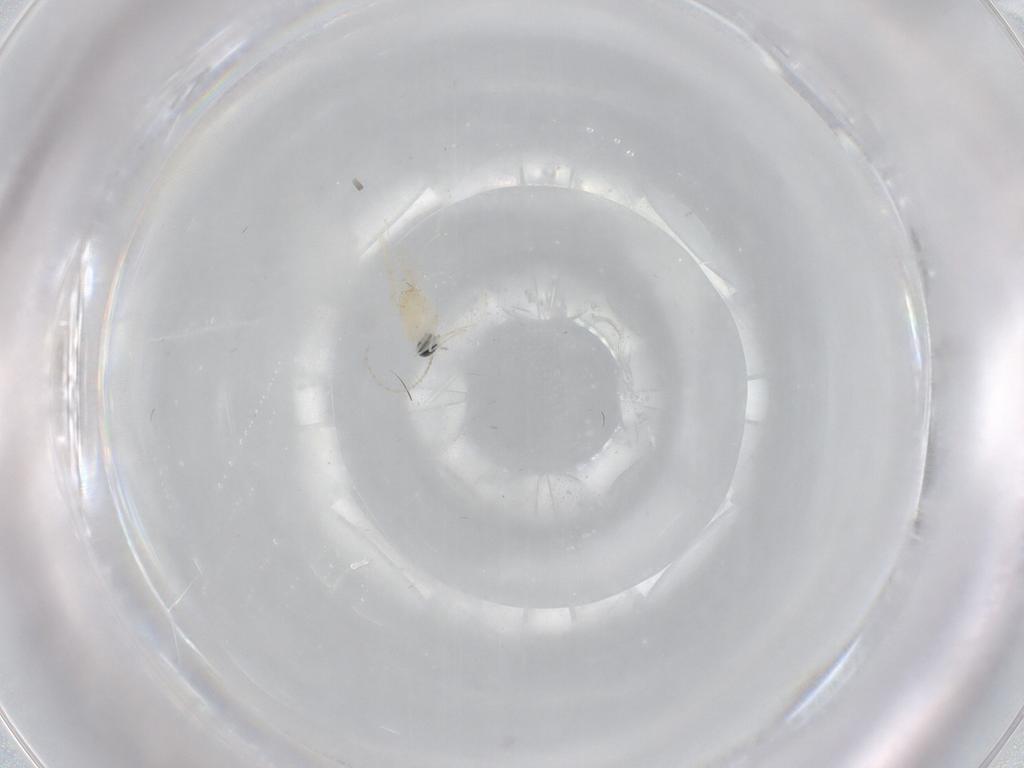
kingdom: Animalia
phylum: Arthropoda
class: Insecta
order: Diptera
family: Cecidomyiidae
